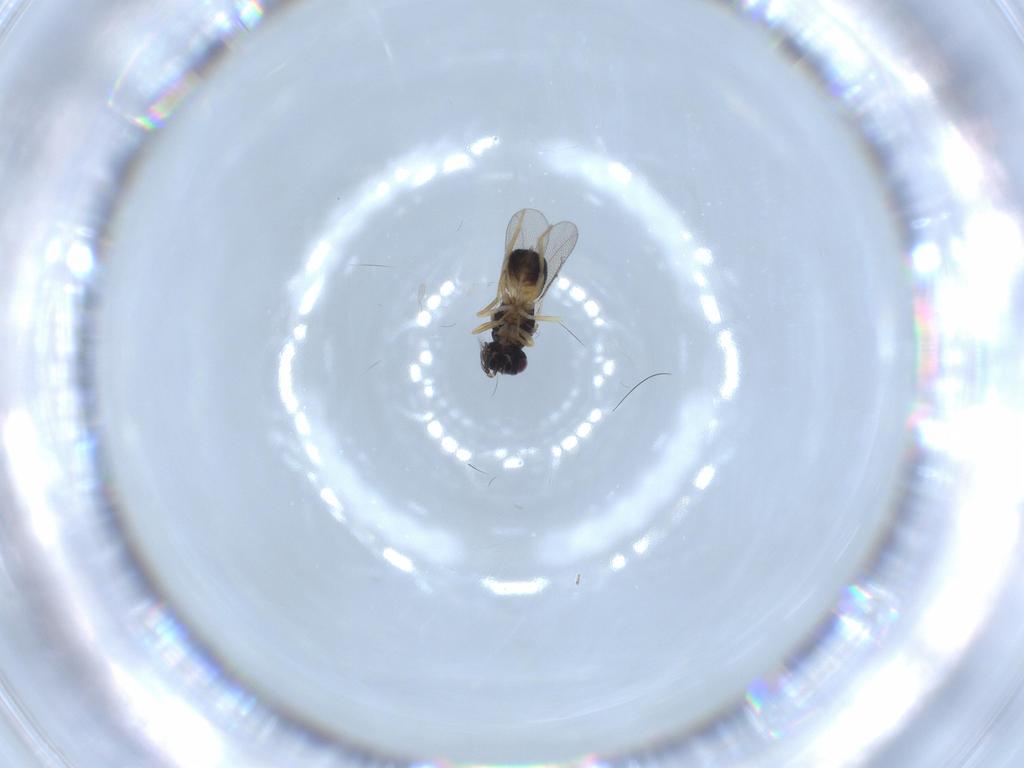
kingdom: Animalia
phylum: Arthropoda
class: Insecta
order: Hymenoptera
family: Eulophidae
